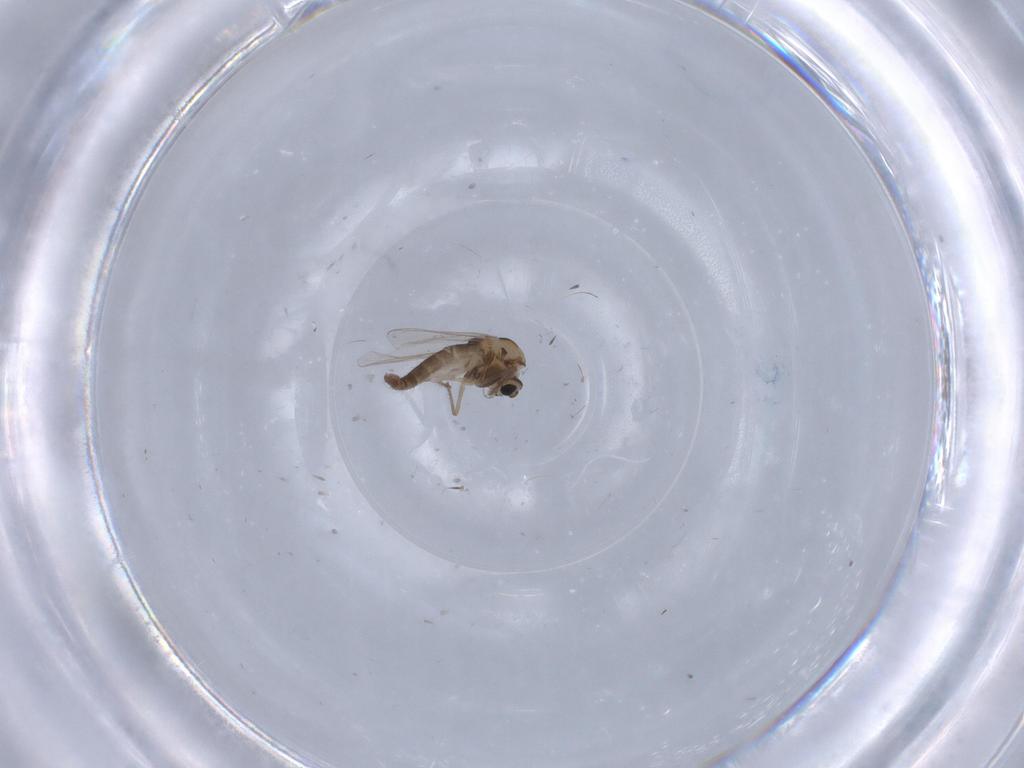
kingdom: Animalia
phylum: Arthropoda
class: Insecta
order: Diptera
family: Chironomidae
